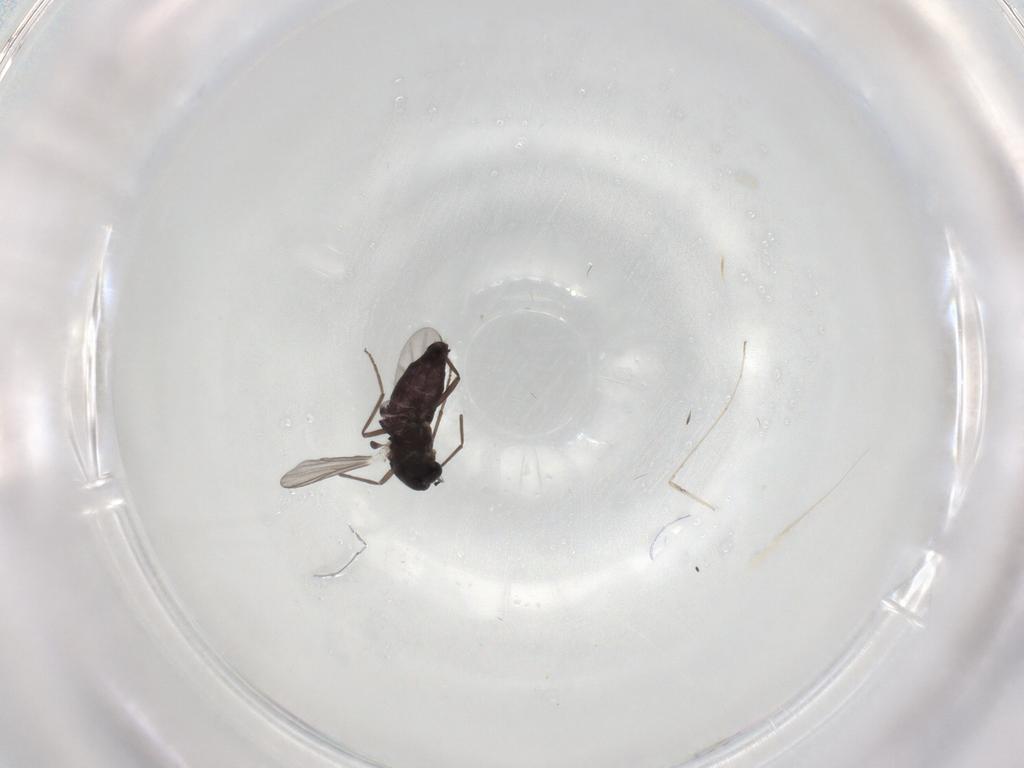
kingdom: Animalia
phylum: Arthropoda
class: Insecta
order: Diptera
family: Chironomidae
